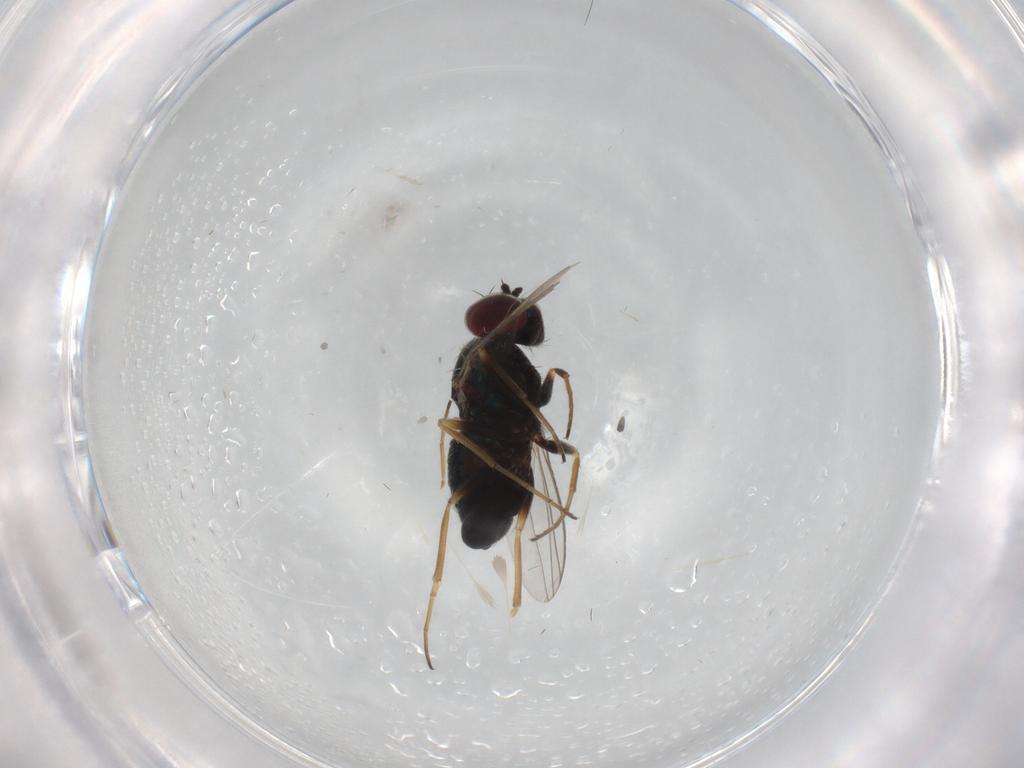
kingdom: Animalia
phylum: Arthropoda
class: Insecta
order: Diptera
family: Dolichopodidae
